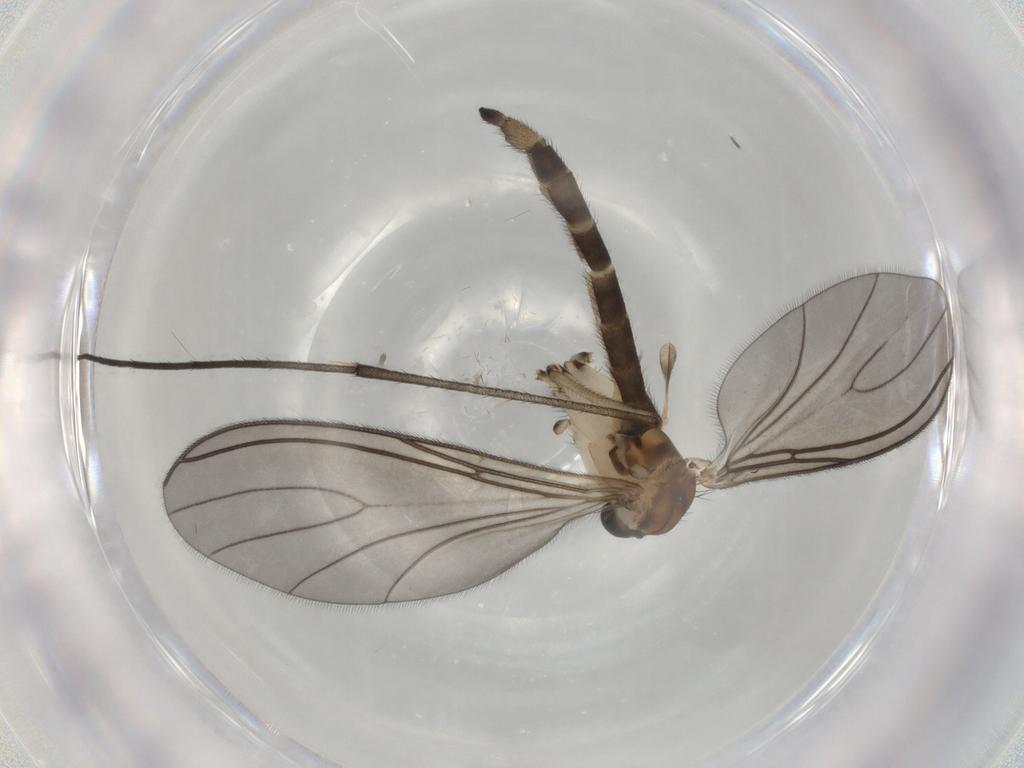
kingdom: Animalia
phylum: Arthropoda
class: Insecta
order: Diptera
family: Sciaridae
